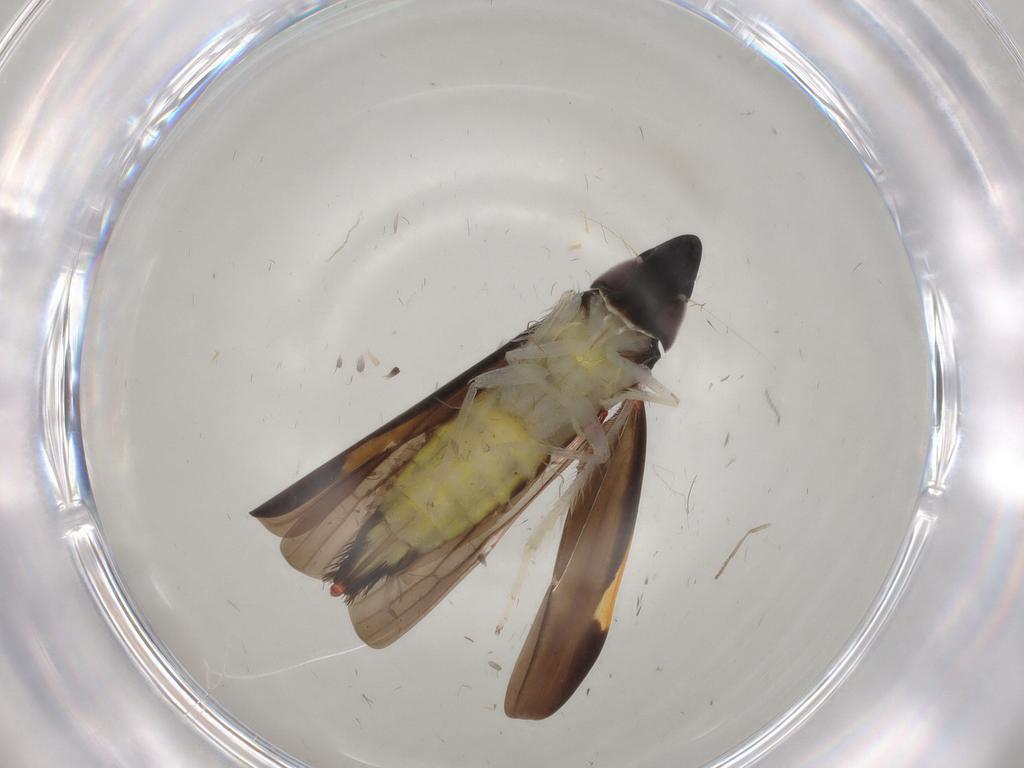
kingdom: Animalia
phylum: Arthropoda
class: Insecta
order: Hemiptera
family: Cicadellidae
